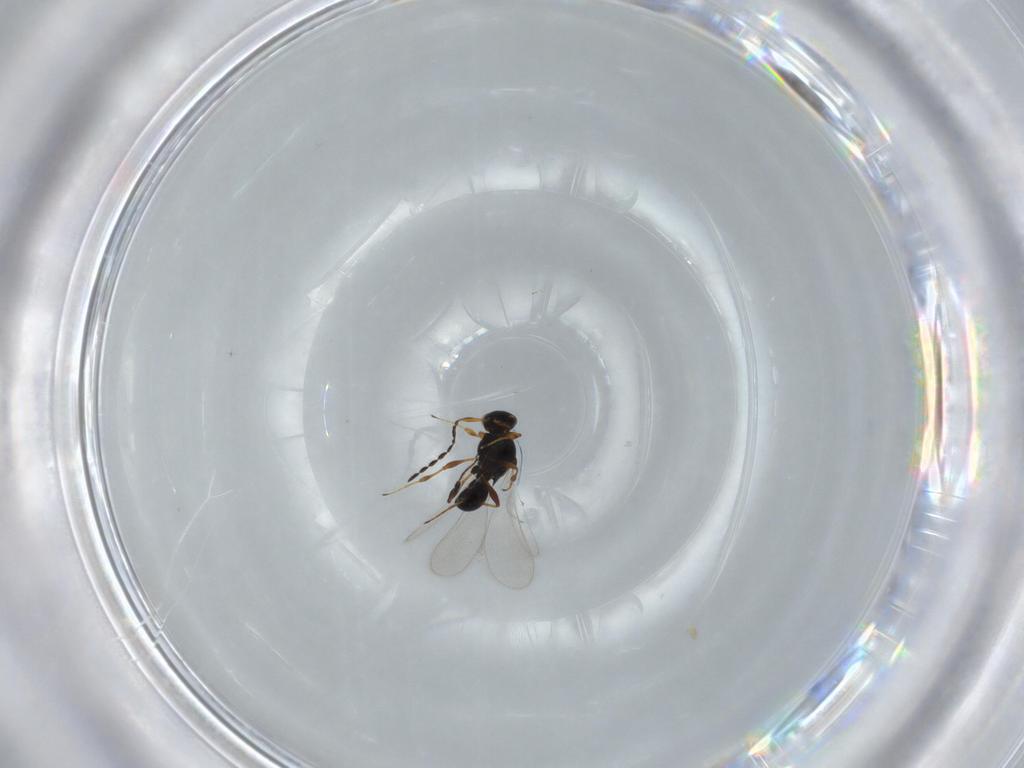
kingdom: Animalia
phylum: Arthropoda
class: Insecta
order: Hymenoptera
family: Platygastridae
